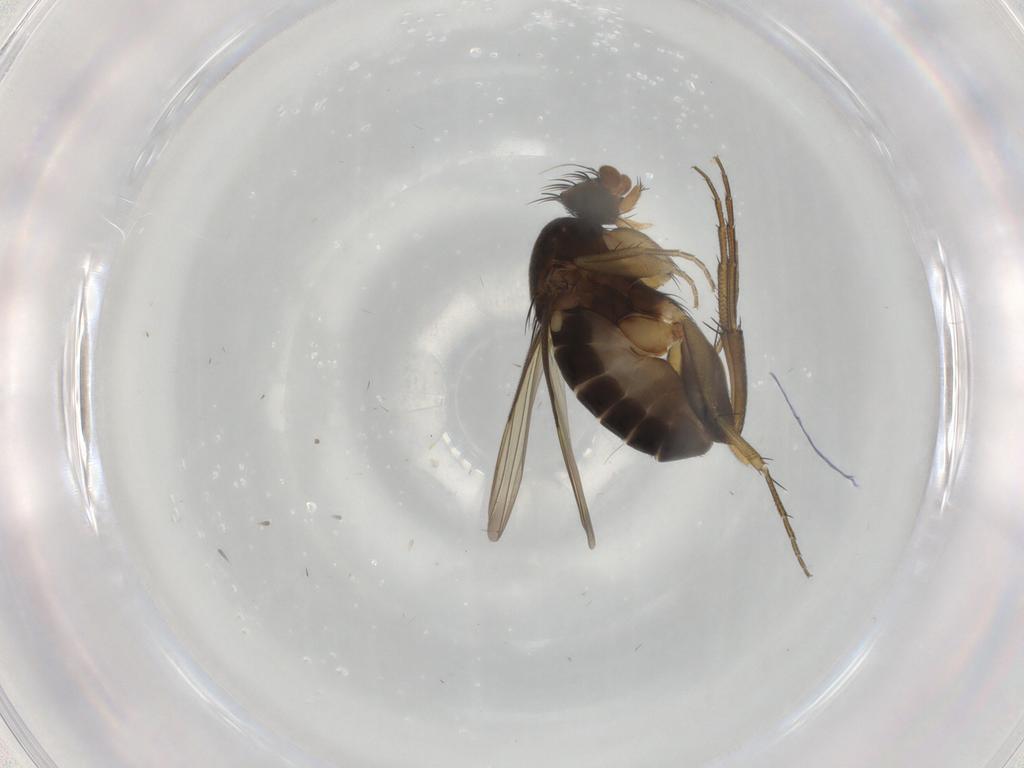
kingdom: Animalia
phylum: Arthropoda
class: Insecta
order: Diptera
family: Phoridae
